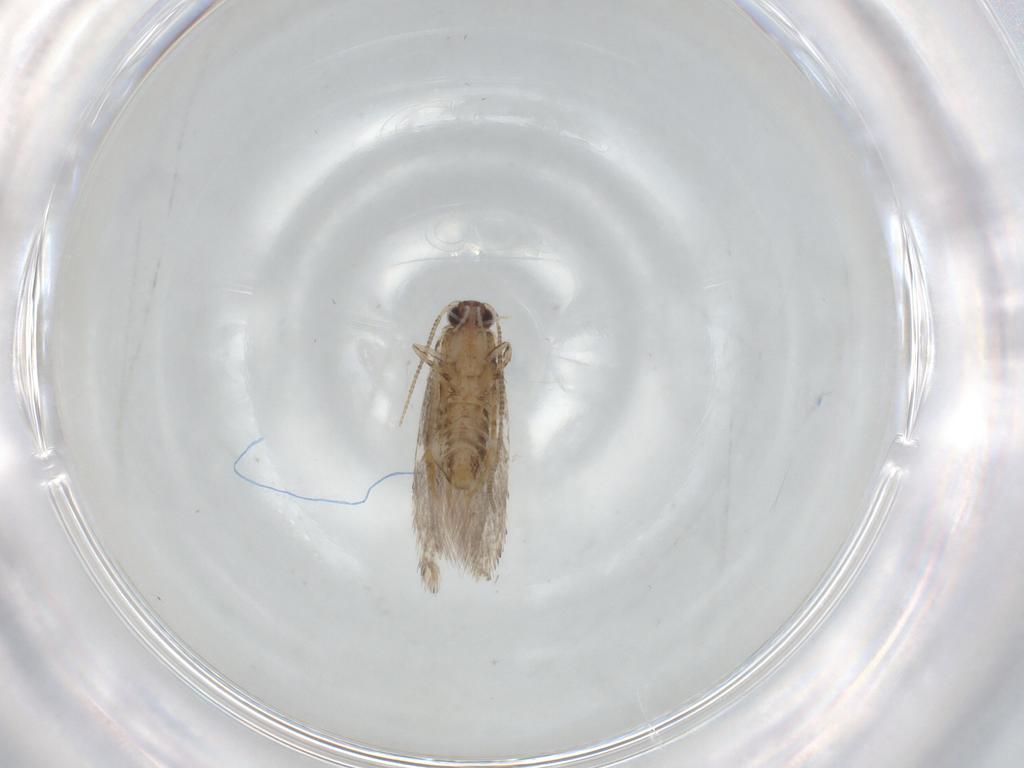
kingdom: Animalia
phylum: Arthropoda
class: Insecta
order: Lepidoptera
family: Tineidae
